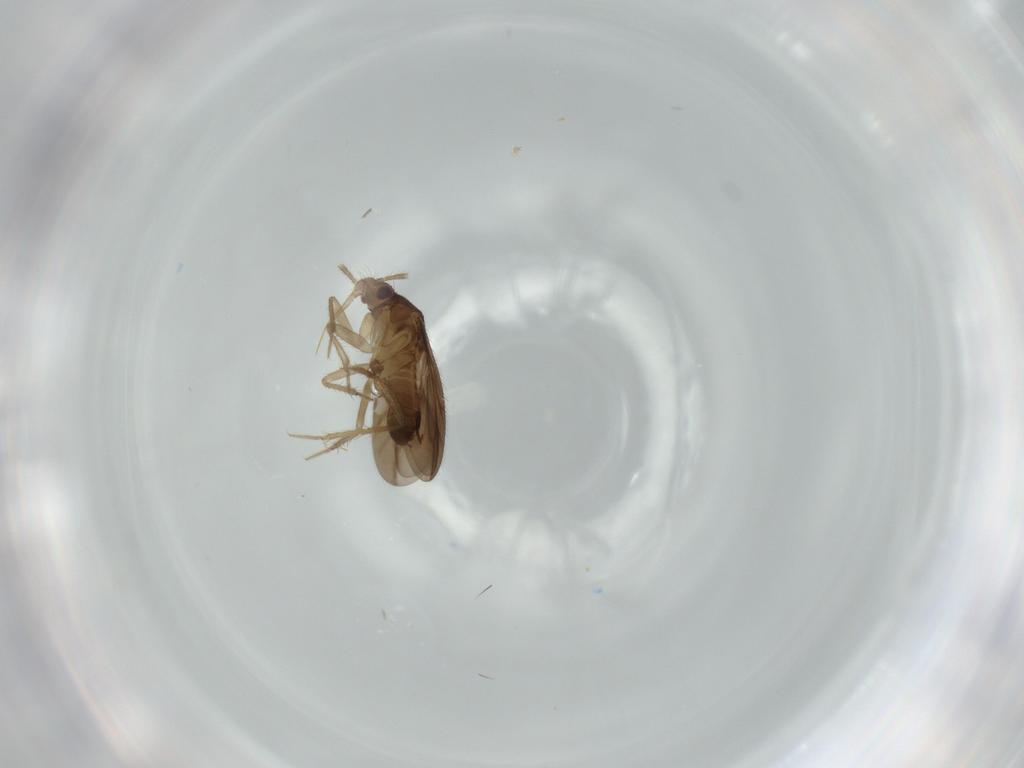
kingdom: Animalia
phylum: Arthropoda
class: Insecta
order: Hemiptera
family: Ceratocombidae
